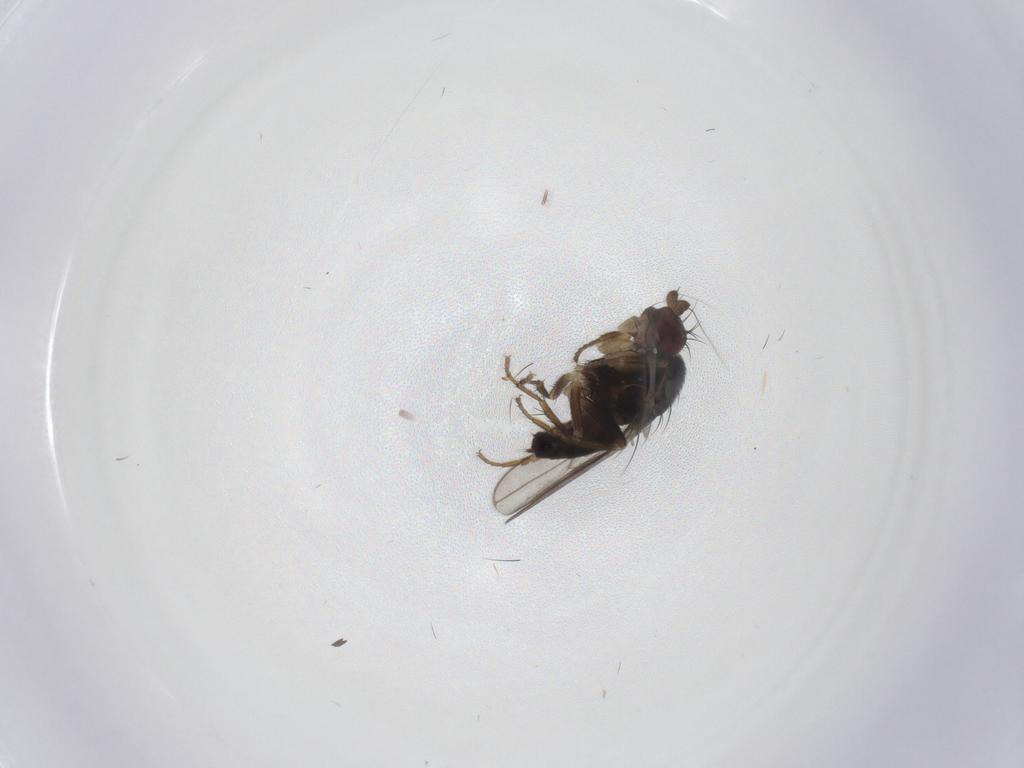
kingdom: Animalia
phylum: Arthropoda
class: Insecta
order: Diptera
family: Sphaeroceridae
